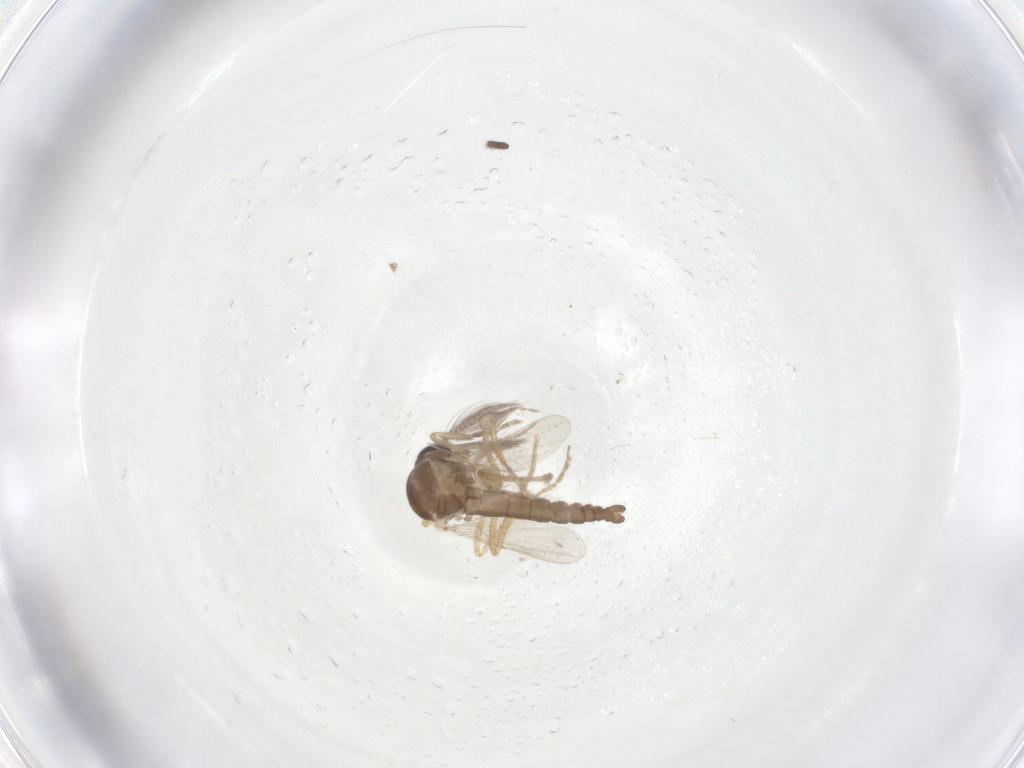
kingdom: Animalia
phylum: Arthropoda
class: Insecta
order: Diptera
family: Ceratopogonidae
